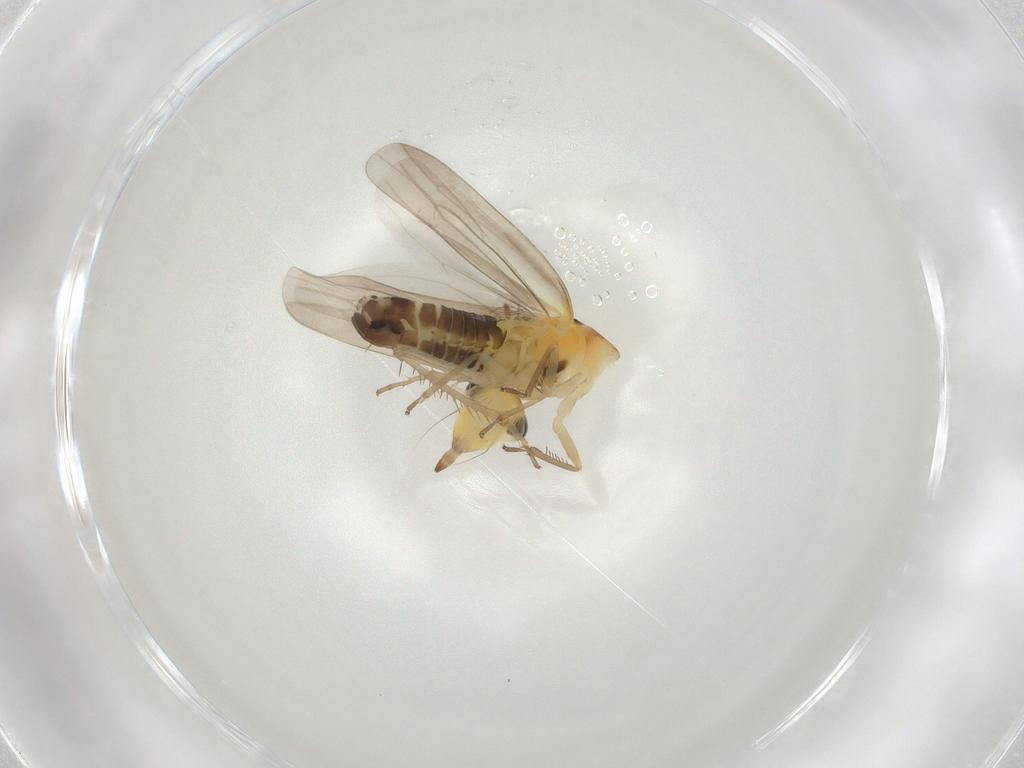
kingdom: Animalia
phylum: Arthropoda
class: Insecta
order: Hemiptera
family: Cicadellidae
